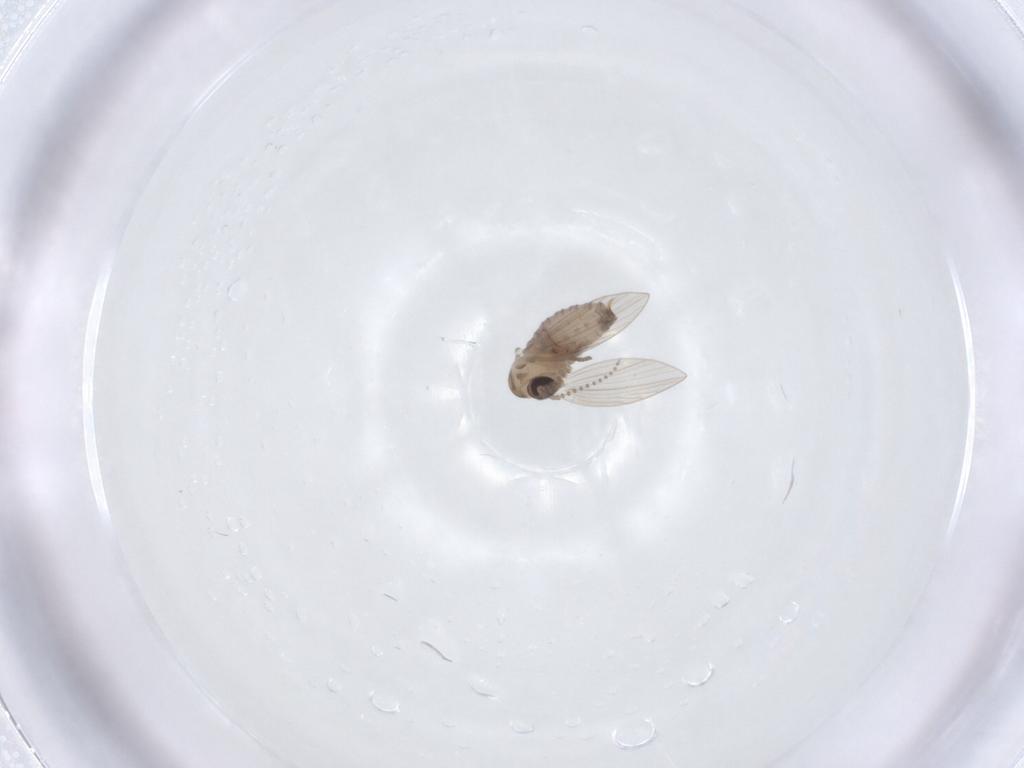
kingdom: Animalia
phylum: Arthropoda
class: Insecta
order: Diptera
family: Psychodidae
